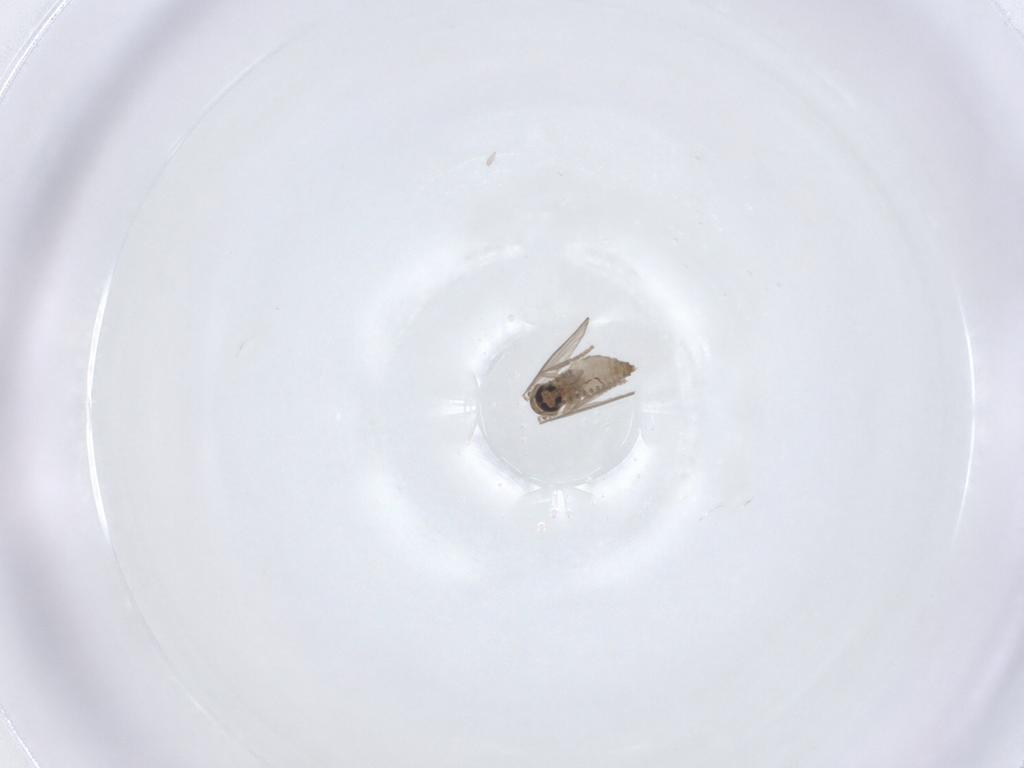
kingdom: Animalia
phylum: Arthropoda
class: Insecta
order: Diptera
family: Psychodidae
